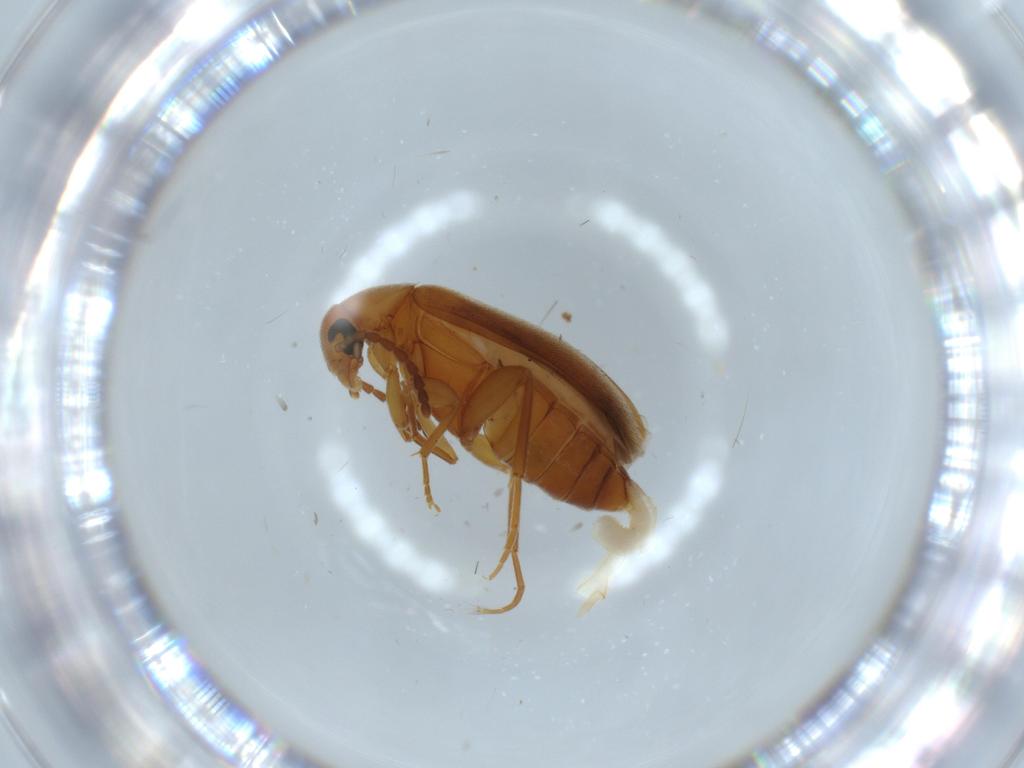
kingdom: Animalia
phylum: Arthropoda
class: Insecta
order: Coleoptera
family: Scraptiidae
